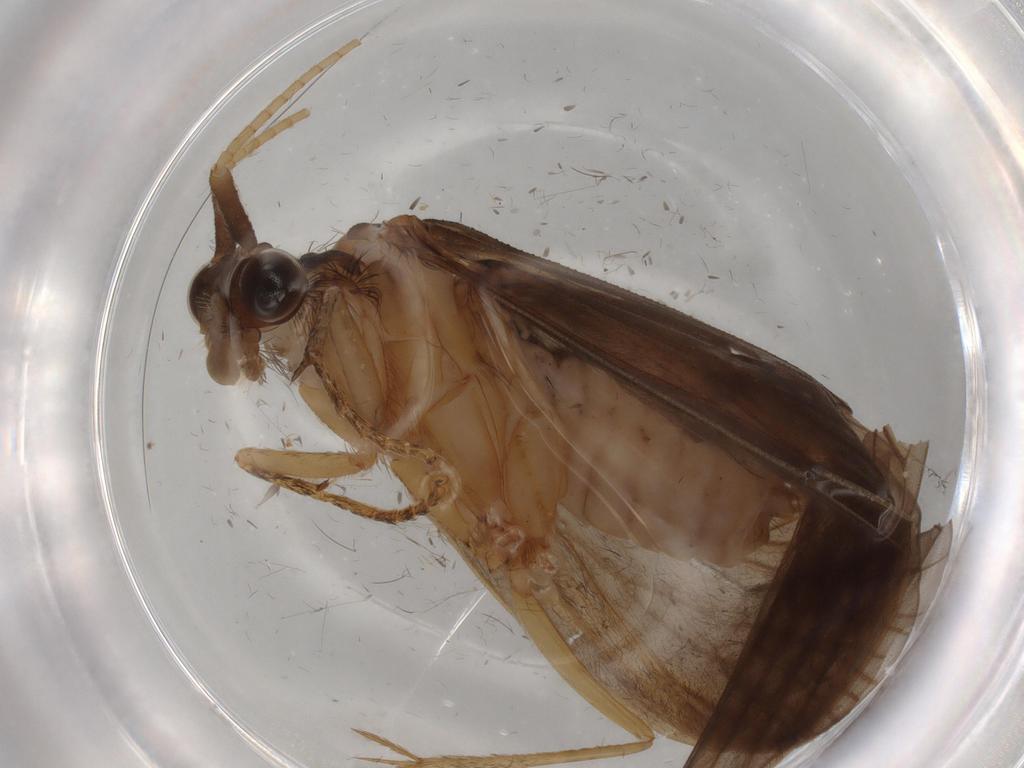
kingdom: Animalia
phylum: Arthropoda
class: Insecta
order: Trichoptera
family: Lepidostomatidae
